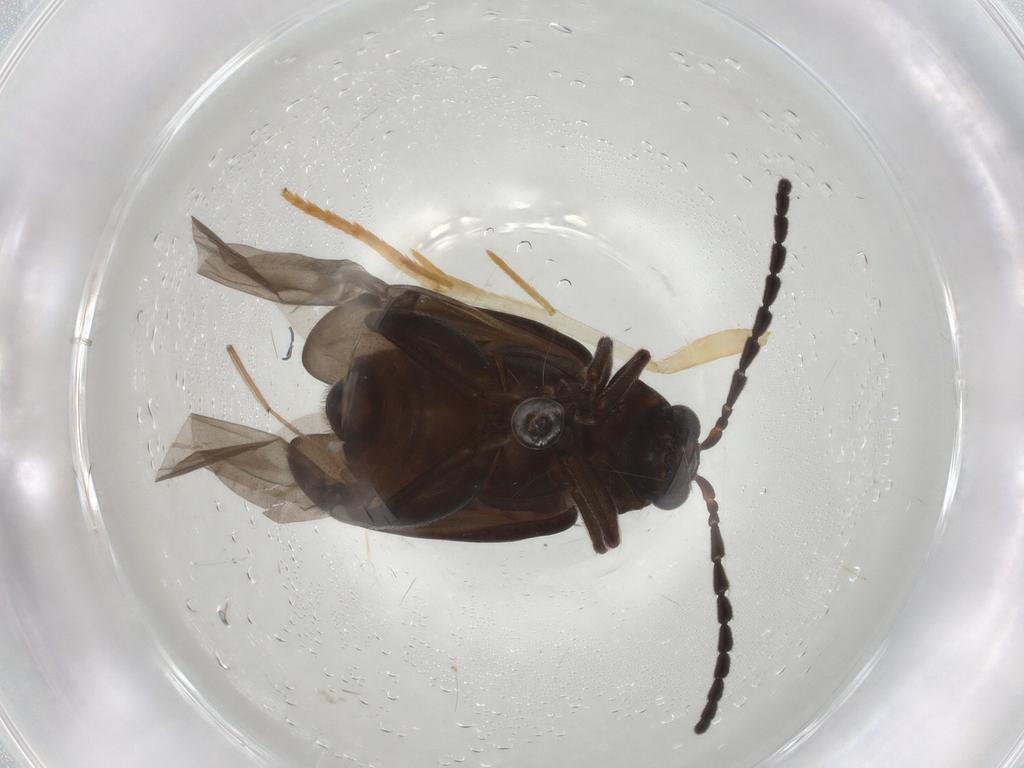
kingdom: Animalia
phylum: Arthropoda
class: Insecta
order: Coleoptera
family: Chrysomelidae
